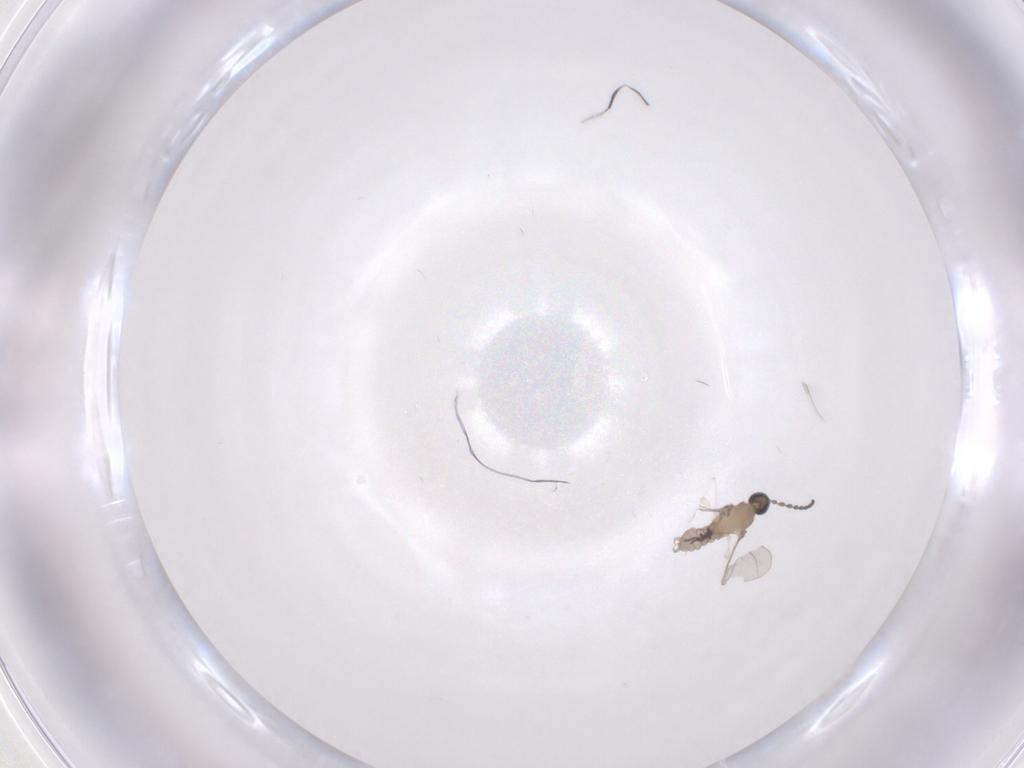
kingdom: Animalia
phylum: Arthropoda
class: Insecta
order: Diptera
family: Cecidomyiidae
